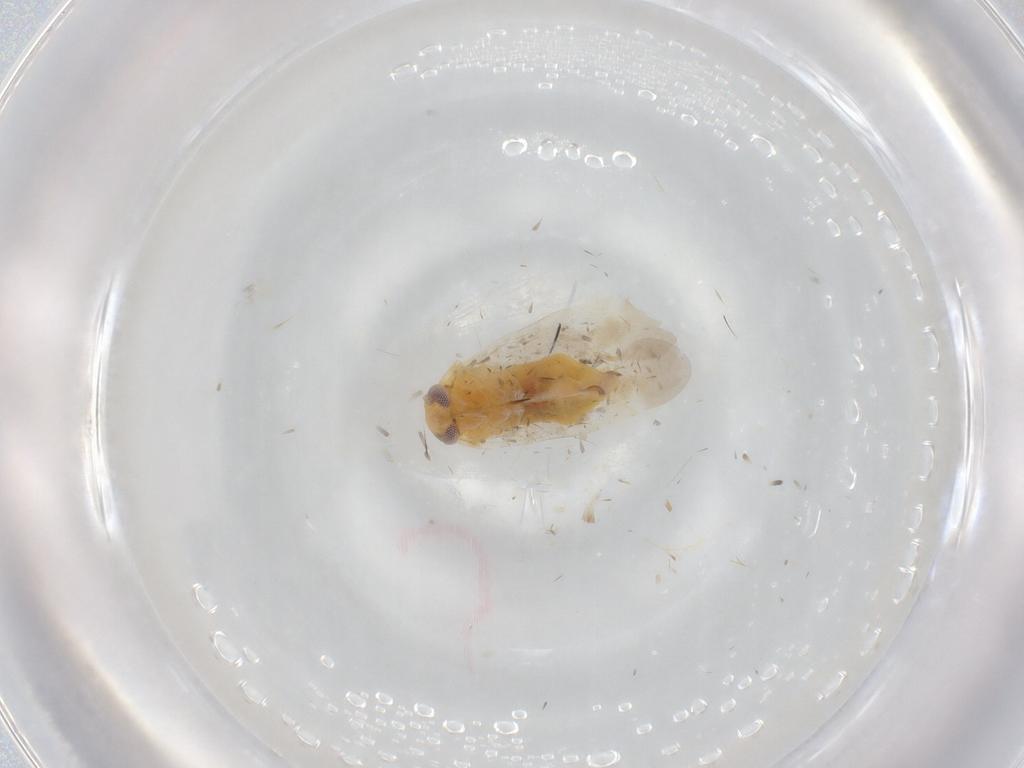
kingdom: Animalia
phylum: Arthropoda
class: Insecta
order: Hemiptera
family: Miridae
